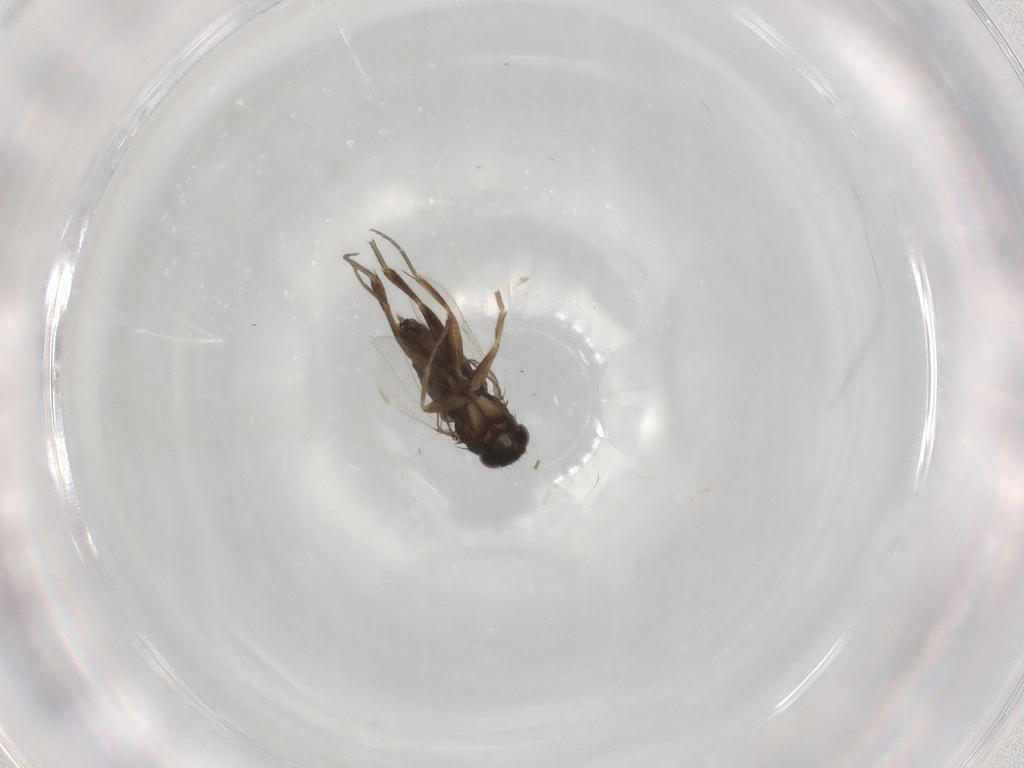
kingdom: Animalia
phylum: Arthropoda
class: Insecta
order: Diptera
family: Phoridae
